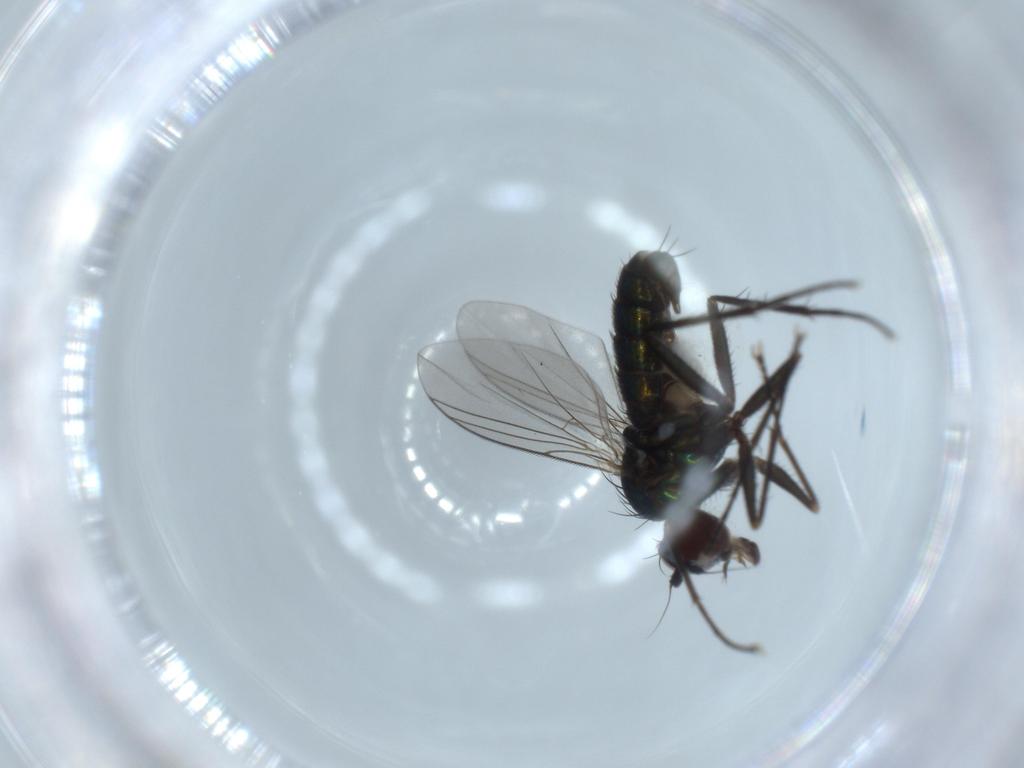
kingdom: Animalia
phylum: Arthropoda
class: Insecta
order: Diptera
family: Dolichopodidae
